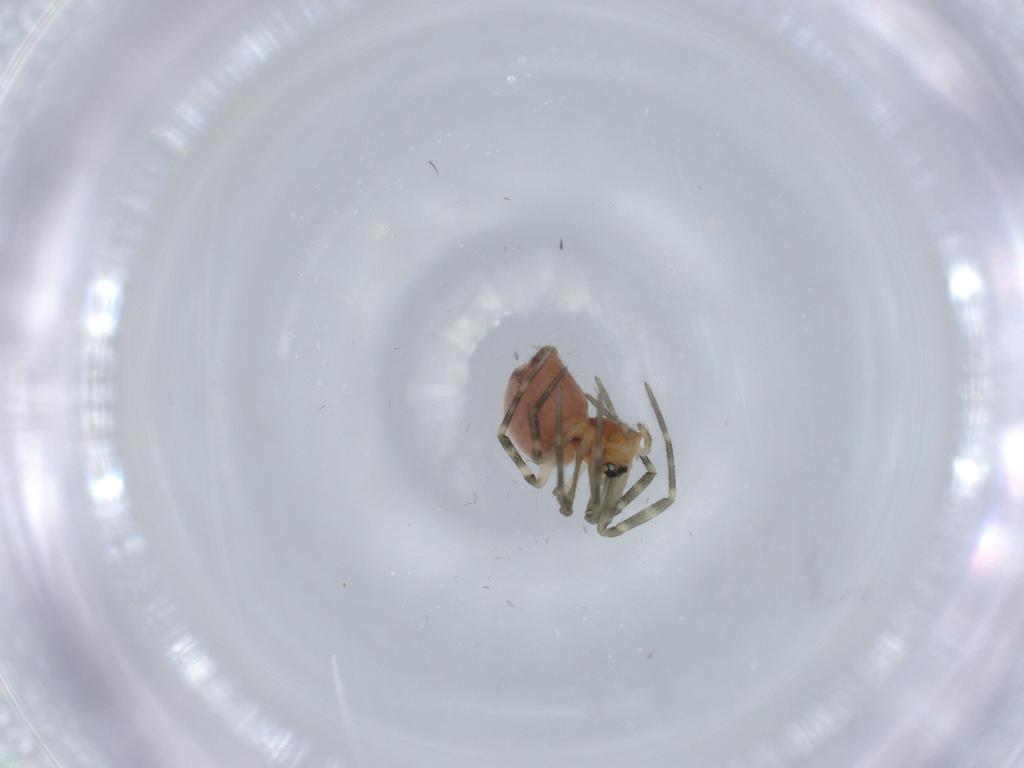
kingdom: Animalia
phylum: Arthropoda
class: Arachnida
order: Araneae
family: Linyphiidae
